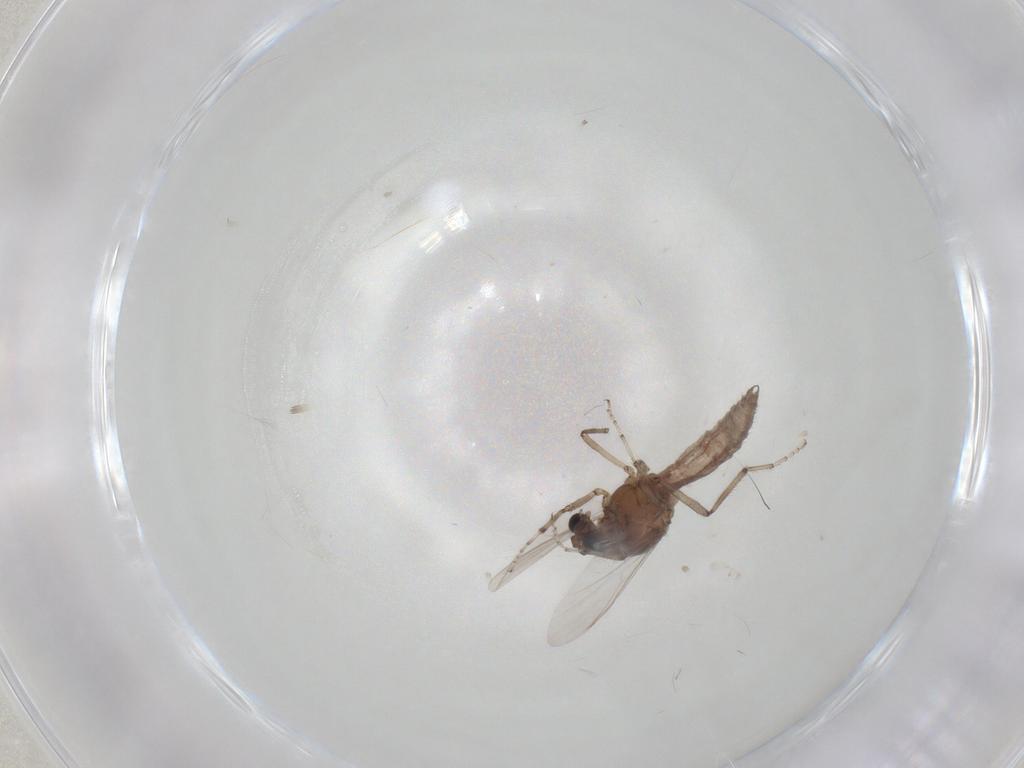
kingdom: Animalia
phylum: Arthropoda
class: Insecta
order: Diptera
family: Ceratopogonidae
